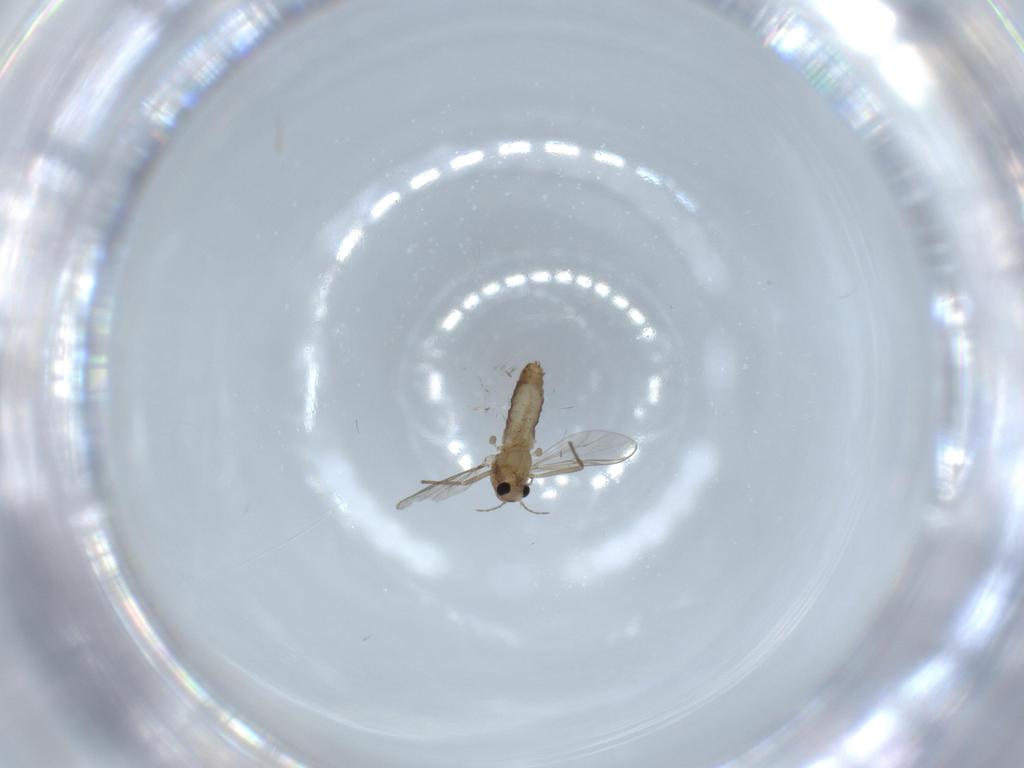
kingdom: Animalia
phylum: Arthropoda
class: Insecta
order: Diptera
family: Chironomidae
